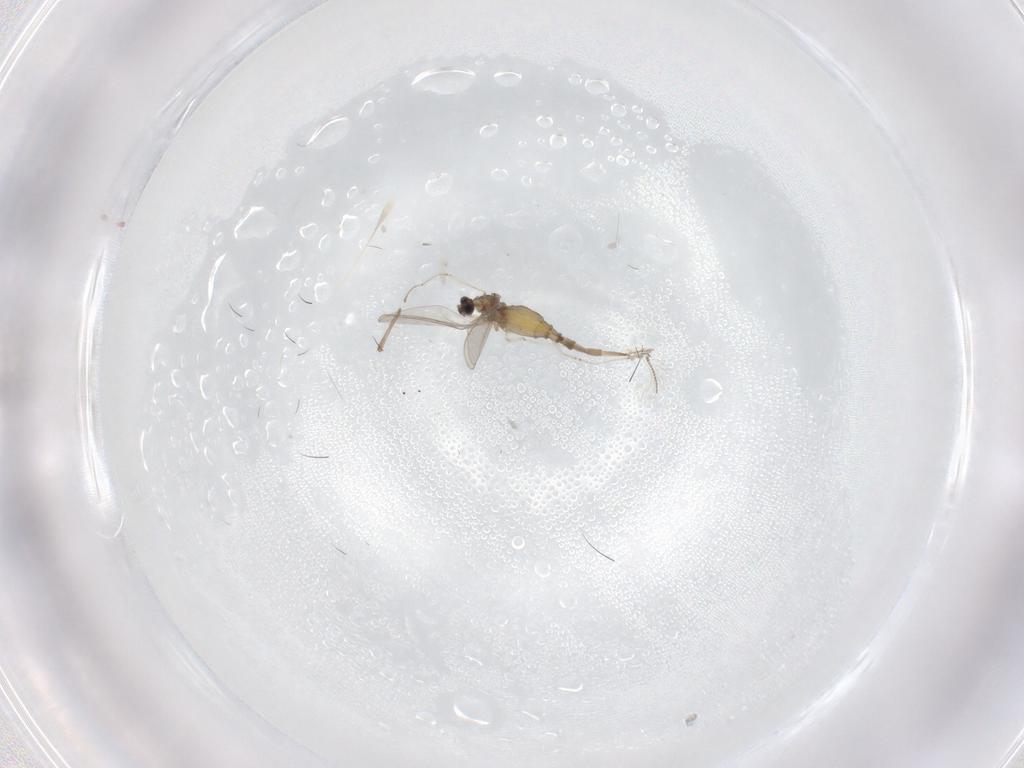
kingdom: Animalia
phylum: Arthropoda
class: Insecta
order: Diptera
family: Cecidomyiidae
